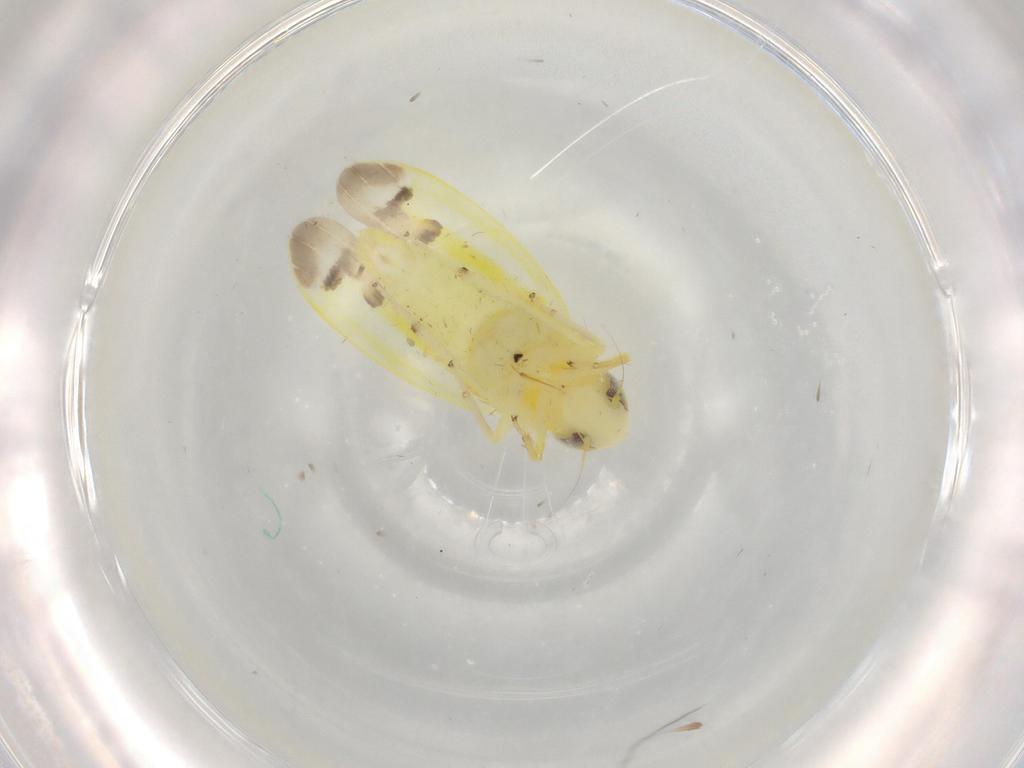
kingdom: Animalia
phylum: Arthropoda
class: Insecta
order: Hemiptera
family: Cicadellidae
